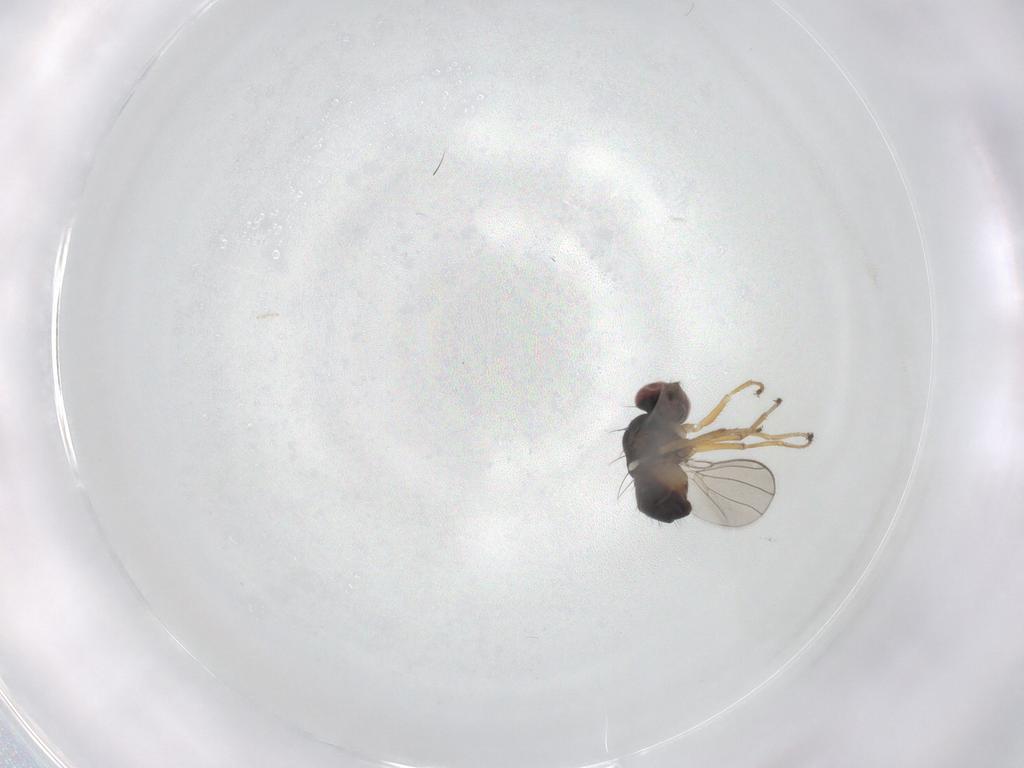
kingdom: Animalia
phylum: Arthropoda
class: Insecta
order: Diptera
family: Ephydridae
